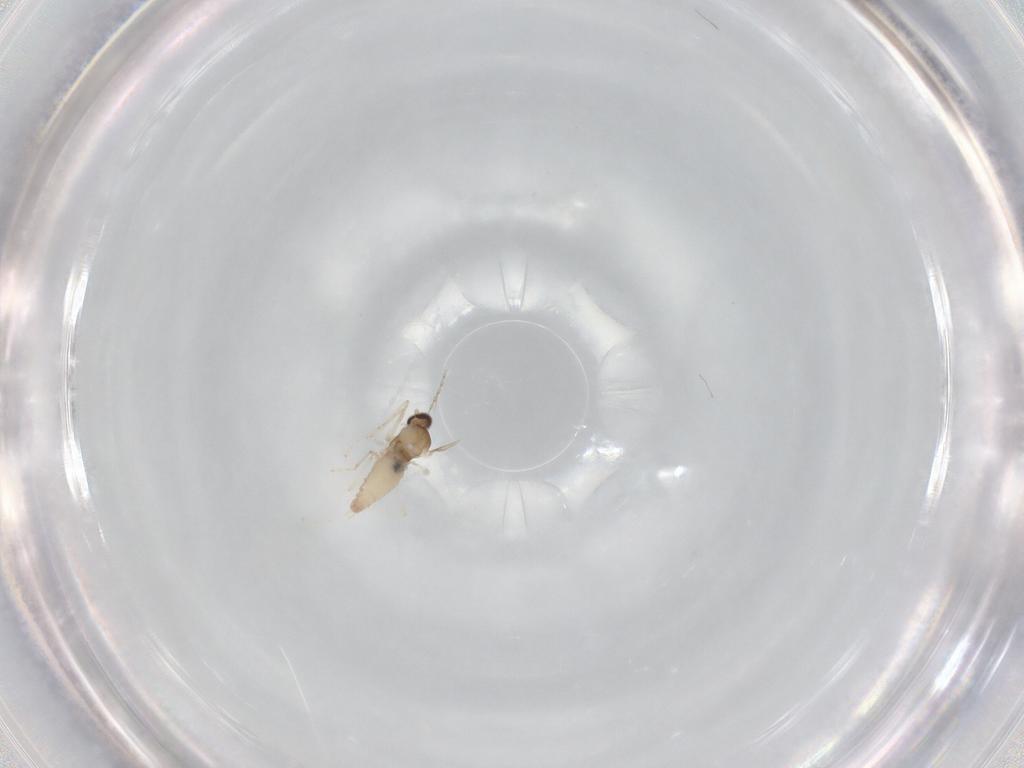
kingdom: Animalia
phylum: Arthropoda
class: Insecta
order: Diptera
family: Cecidomyiidae
